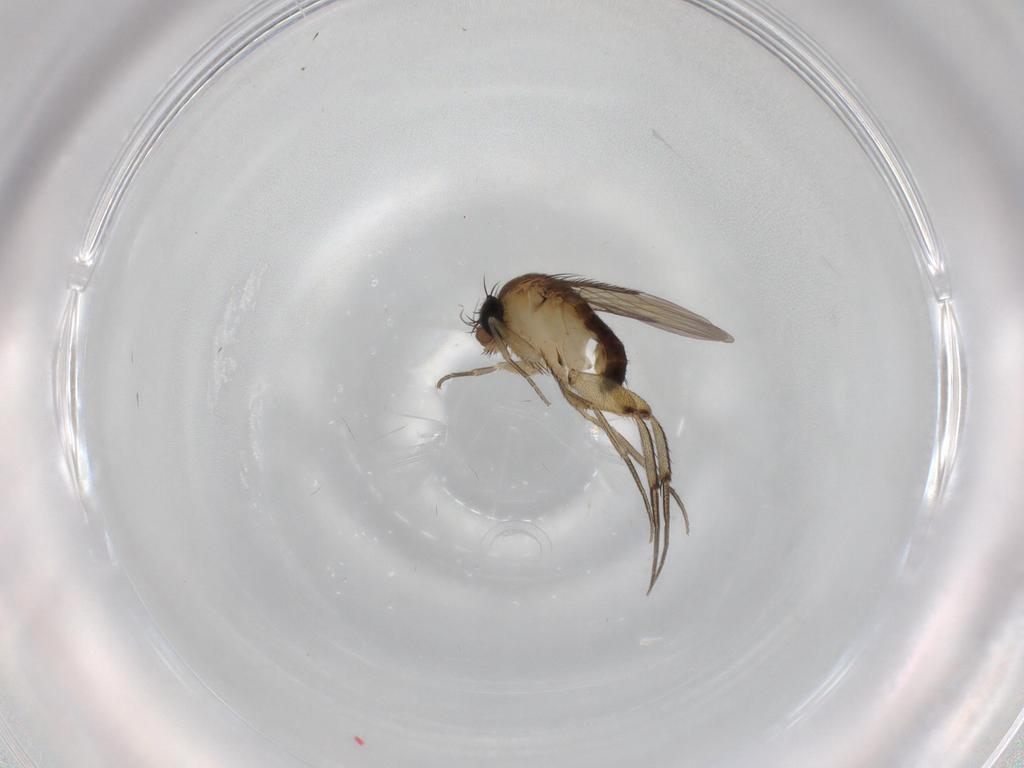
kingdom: Animalia
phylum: Arthropoda
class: Insecta
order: Diptera
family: Phoridae
